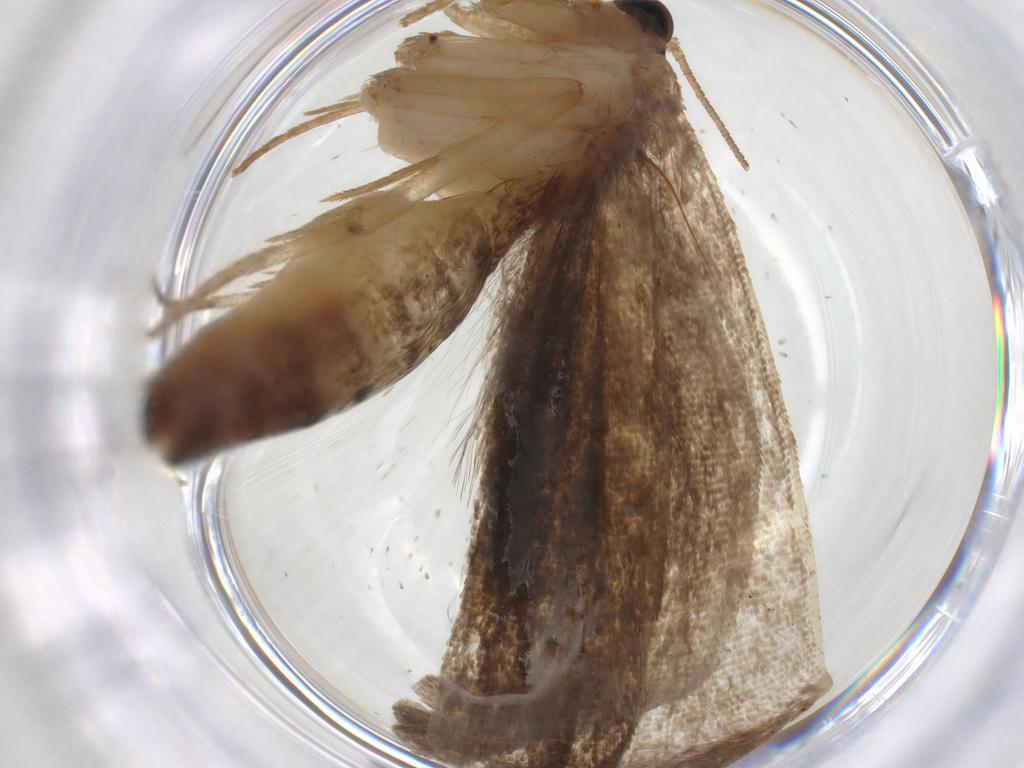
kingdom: Animalia
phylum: Arthropoda
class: Insecta
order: Lepidoptera
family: Immidae
